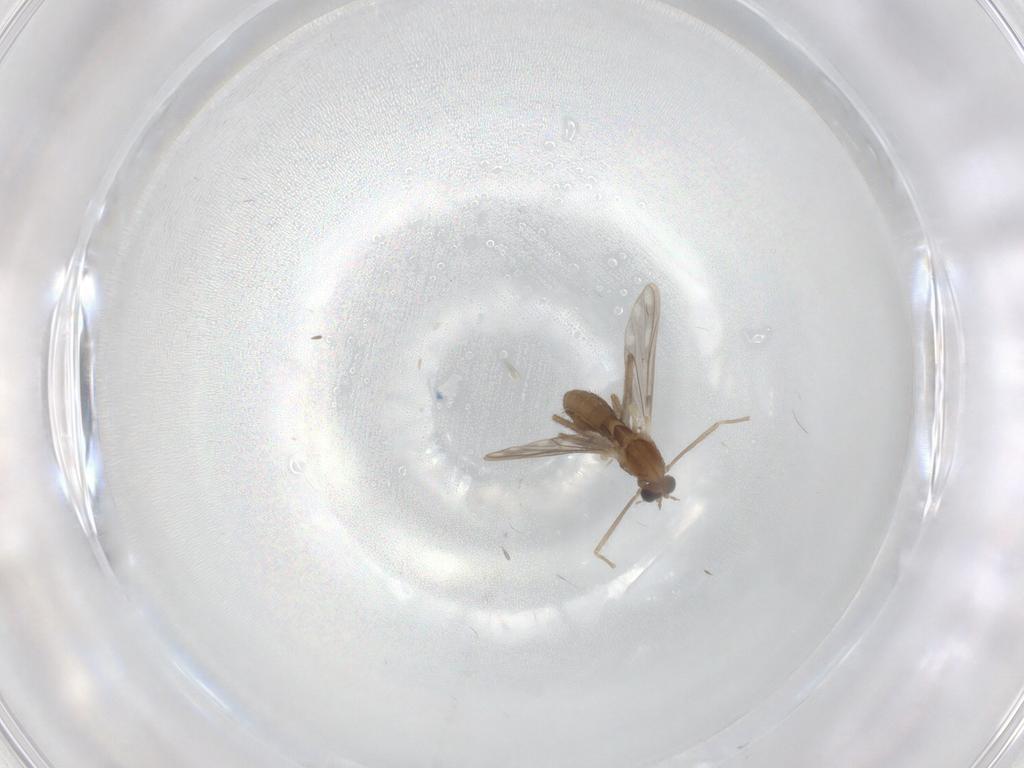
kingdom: Animalia
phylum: Arthropoda
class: Insecta
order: Diptera
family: Chironomidae
